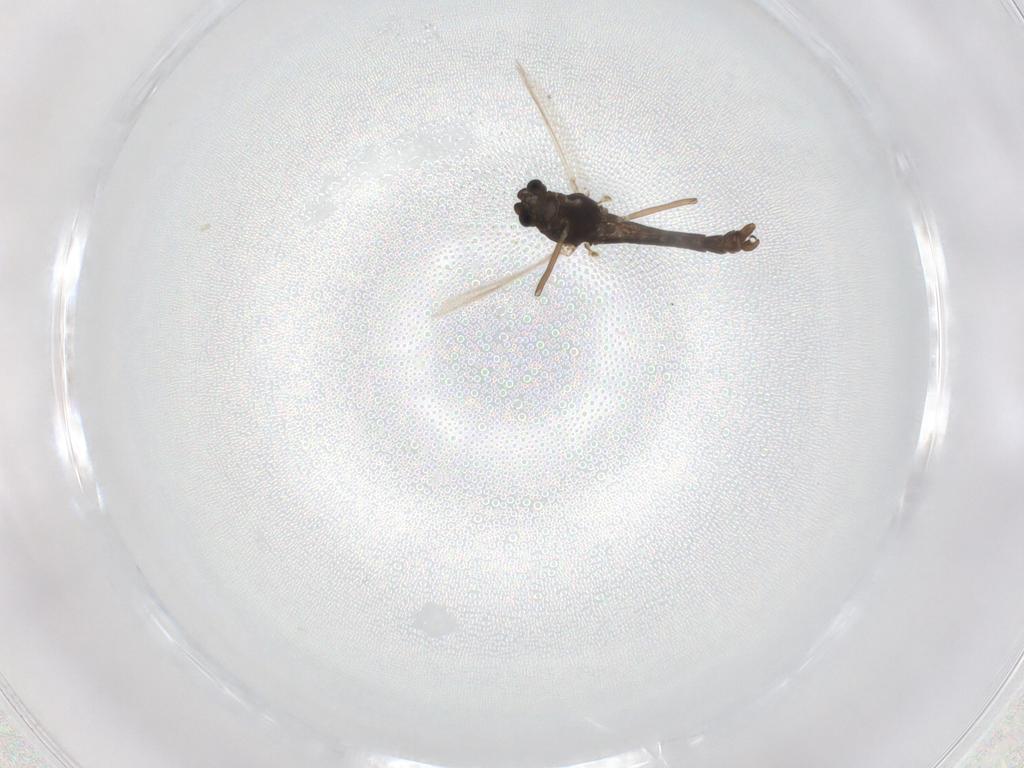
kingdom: Animalia
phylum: Arthropoda
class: Insecta
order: Diptera
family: Chironomidae
